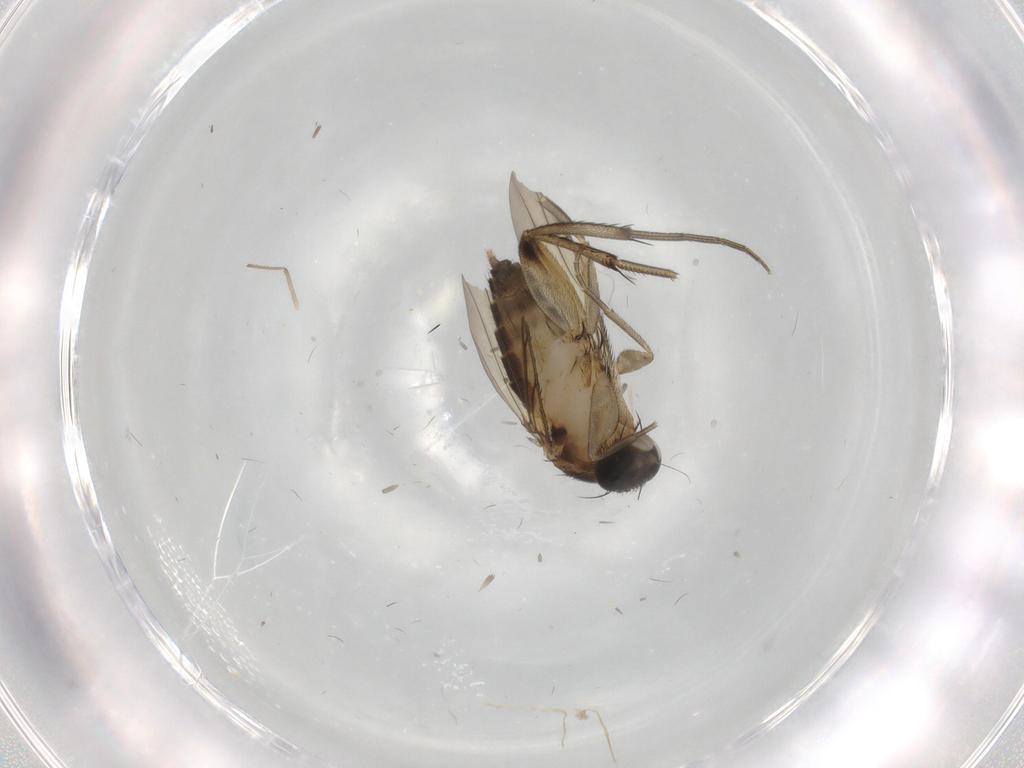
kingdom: Animalia
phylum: Arthropoda
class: Insecta
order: Diptera
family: Phoridae
